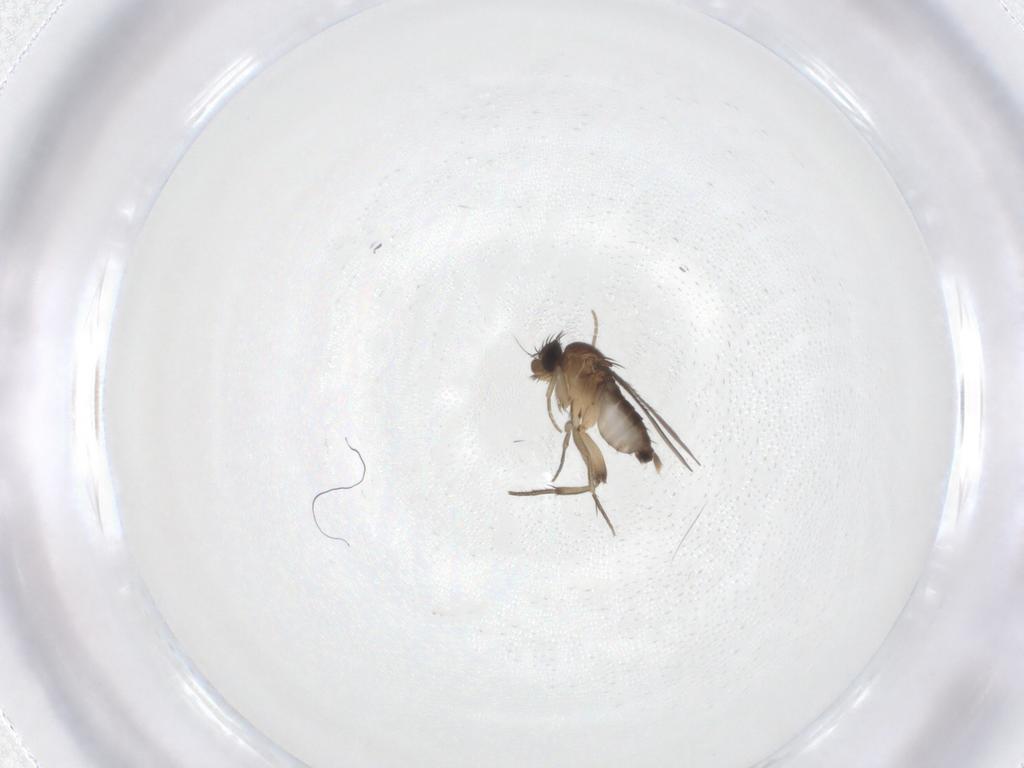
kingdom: Animalia
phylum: Arthropoda
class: Insecta
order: Diptera
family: Phoridae
